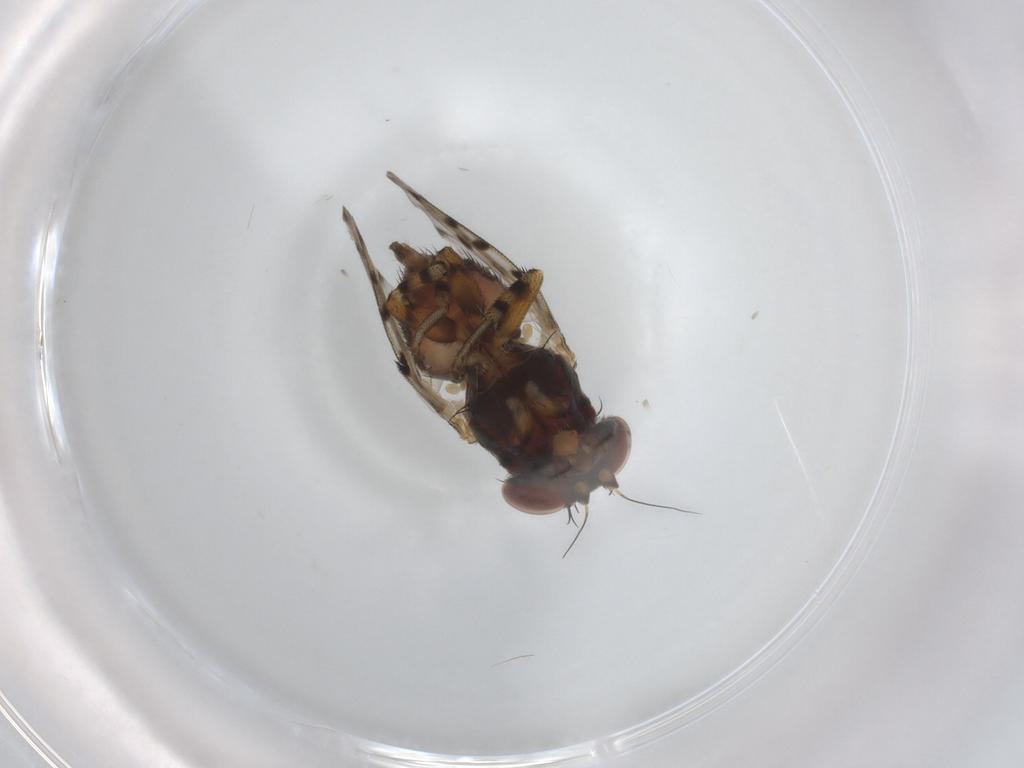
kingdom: Animalia
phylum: Arthropoda
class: Insecta
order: Diptera
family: Odiniidae
